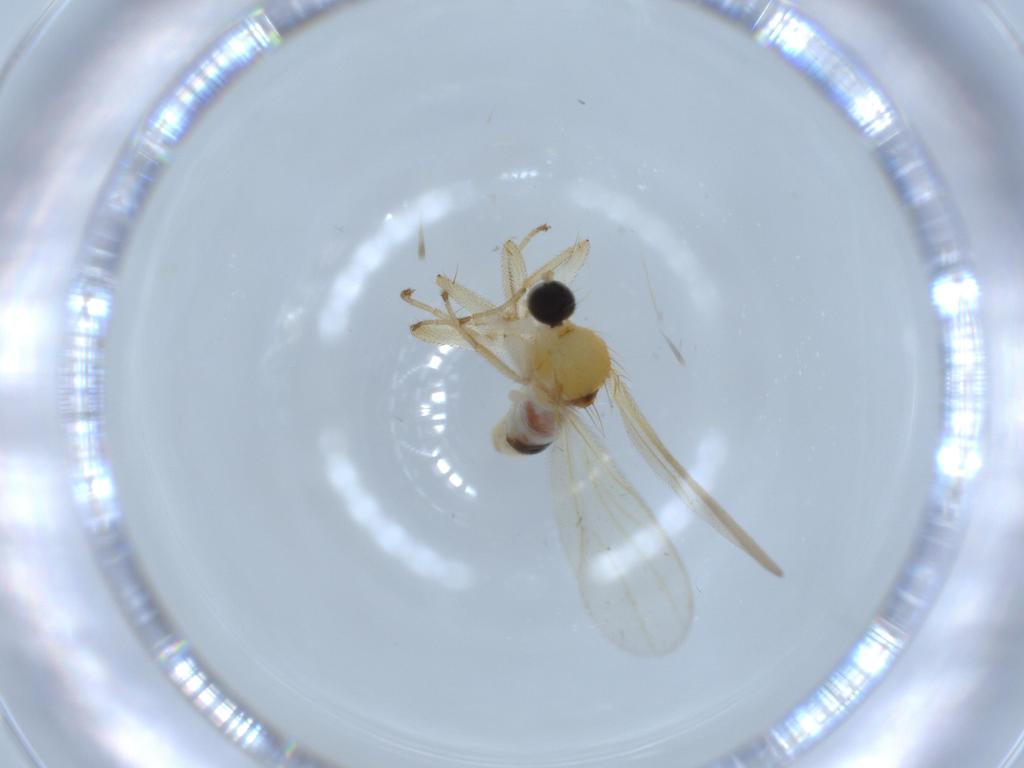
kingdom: Animalia
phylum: Arthropoda
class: Insecta
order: Diptera
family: Hybotidae
